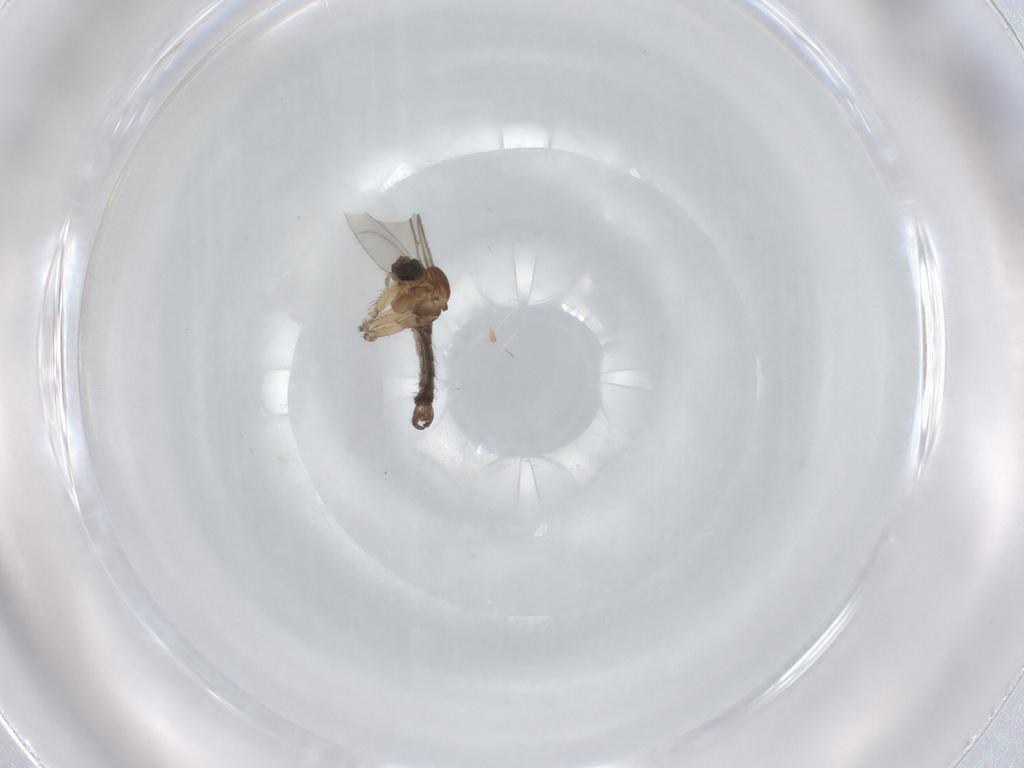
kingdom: Animalia
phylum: Arthropoda
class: Insecta
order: Diptera
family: Sciaridae
